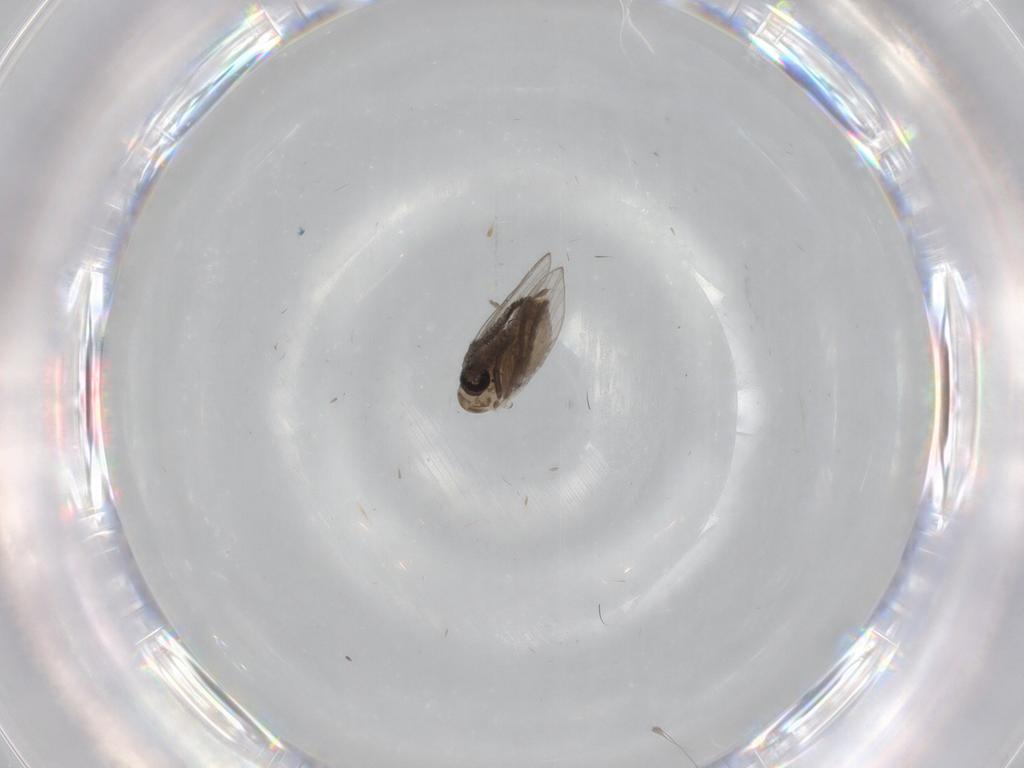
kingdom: Animalia
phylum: Arthropoda
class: Insecta
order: Diptera
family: Psychodidae
